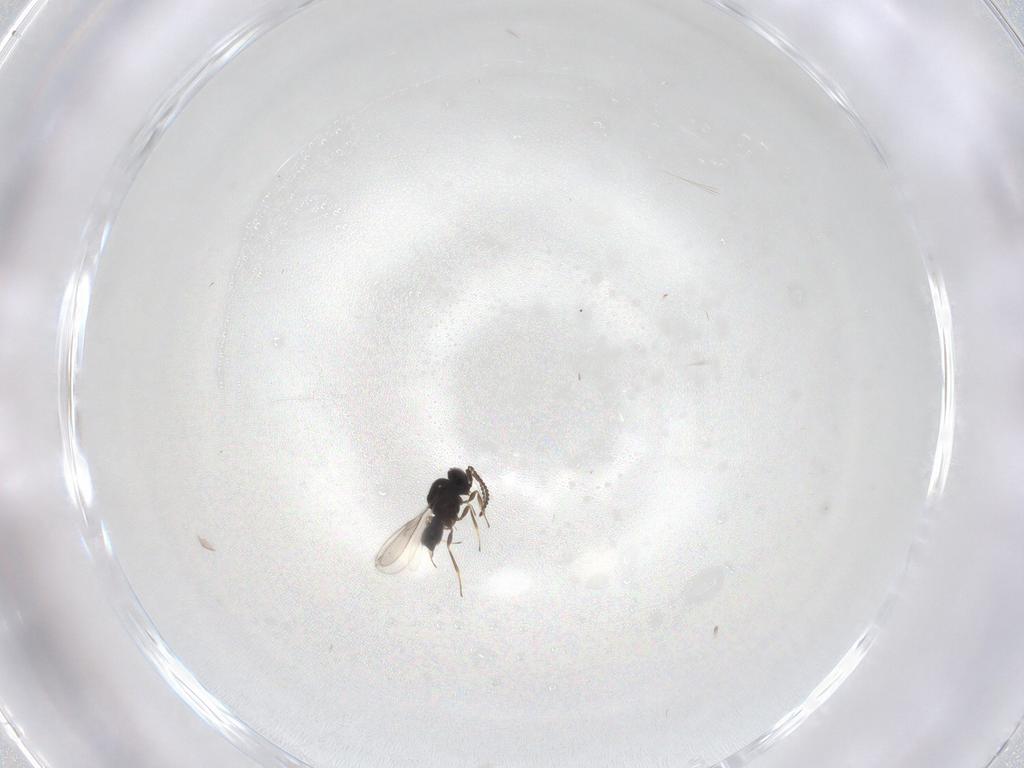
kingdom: Animalia
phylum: Arthropoda
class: Insecta
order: Hymenoptera
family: Scelionidae
